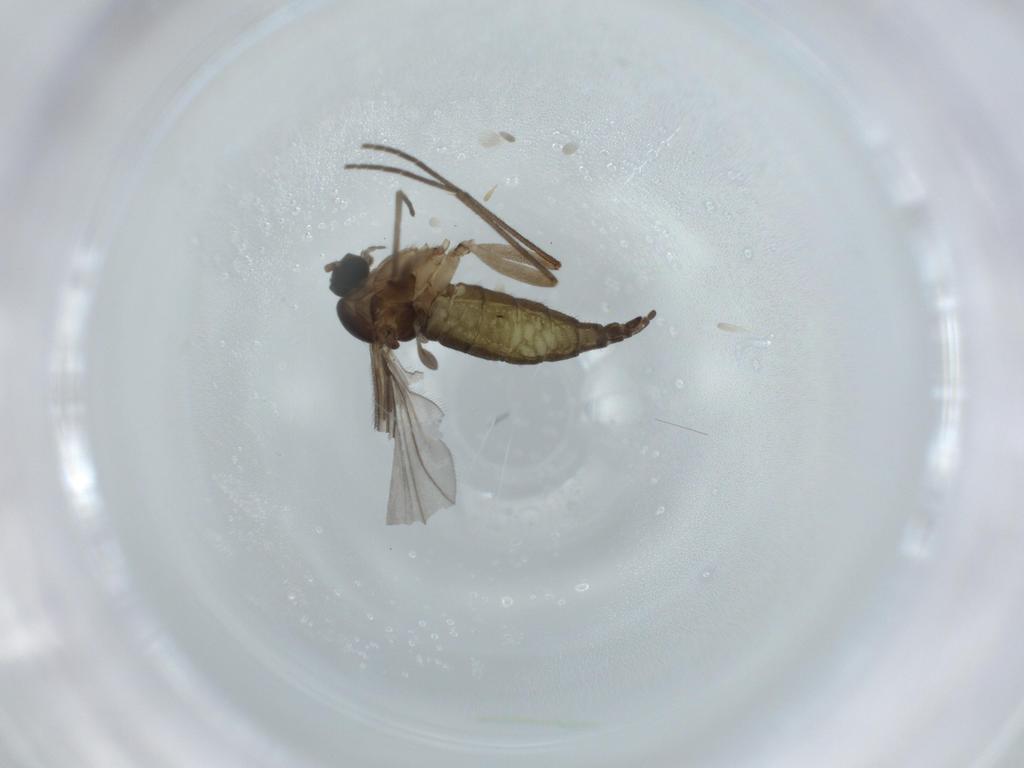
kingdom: Animalia
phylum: Arthropoda
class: Insecta
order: Diptera
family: Sciaridae
